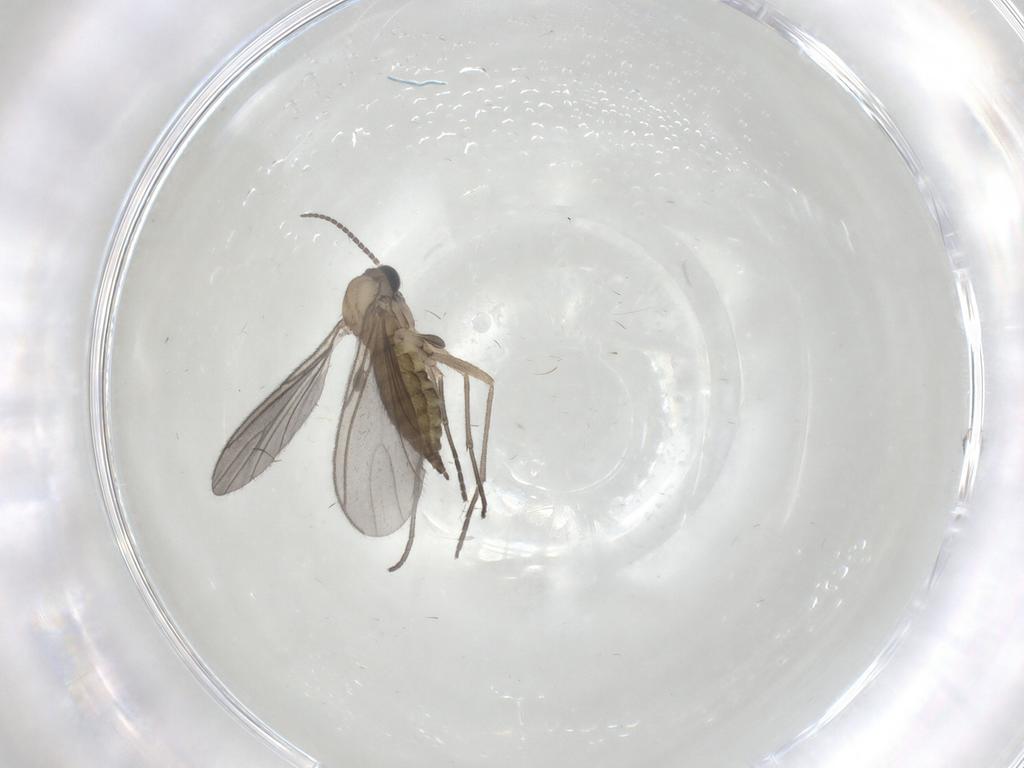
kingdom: Animalia
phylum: Arthropoda
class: Insecta
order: Diptera
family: Sciaridae
